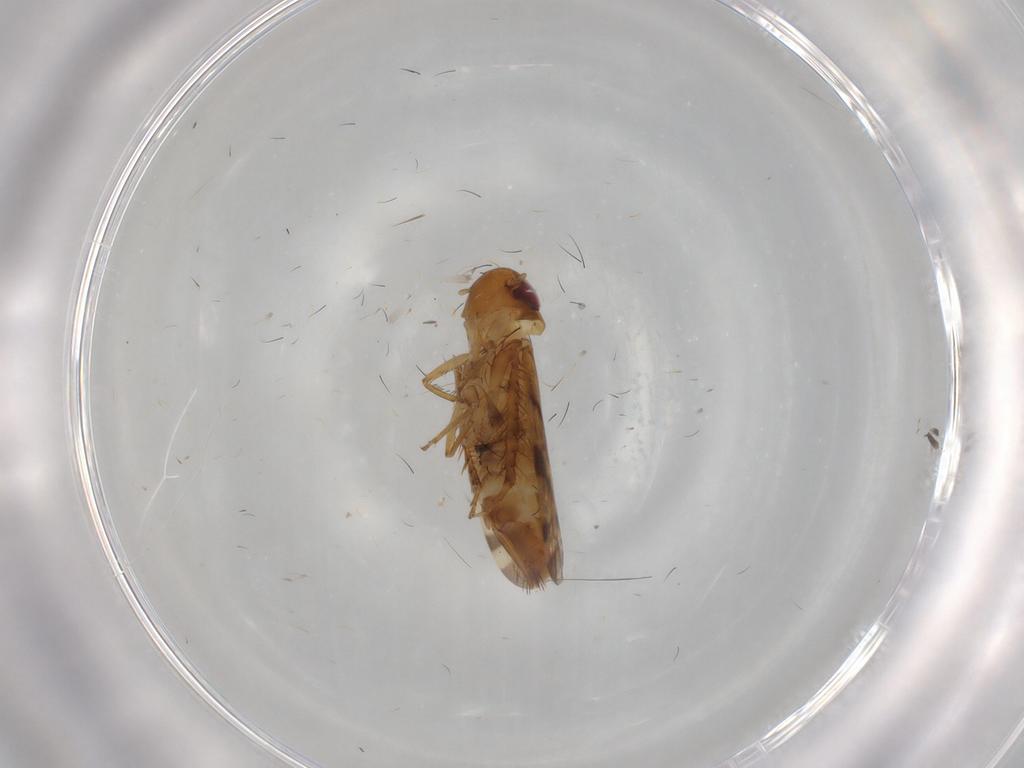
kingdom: Animalia
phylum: Arthropoda
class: Insecta
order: Hemiptera
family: Cicadellidae
